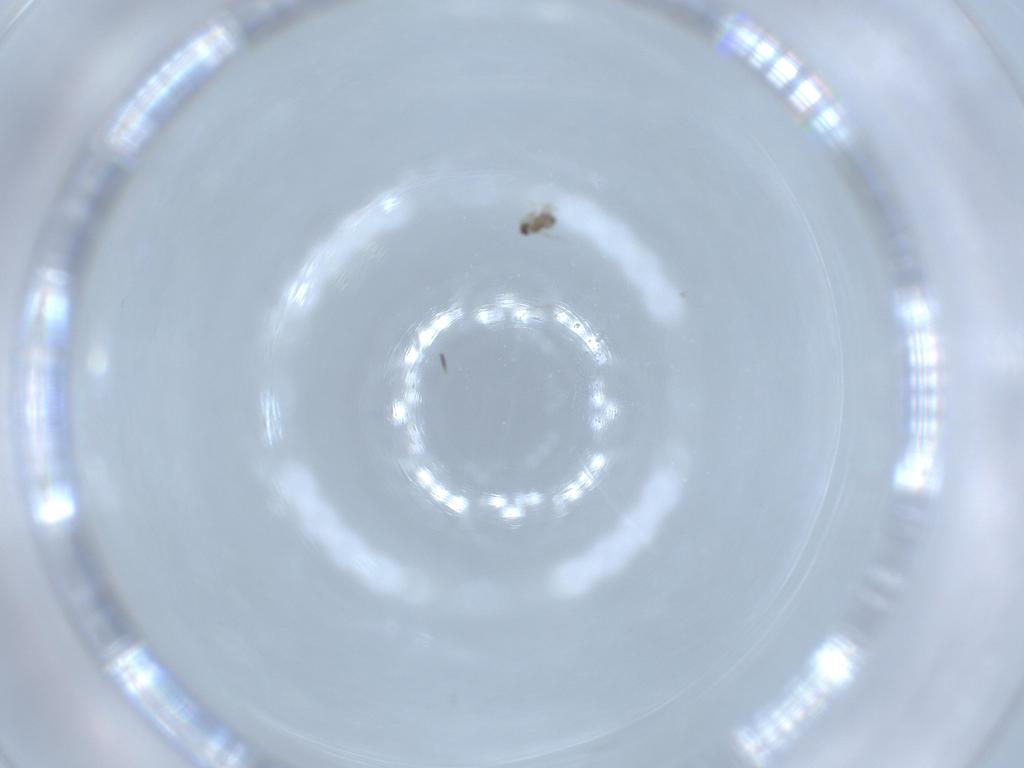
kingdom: Animalia
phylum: Arthropoda
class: Insecta
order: Hymenoptera
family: Mymaridae
